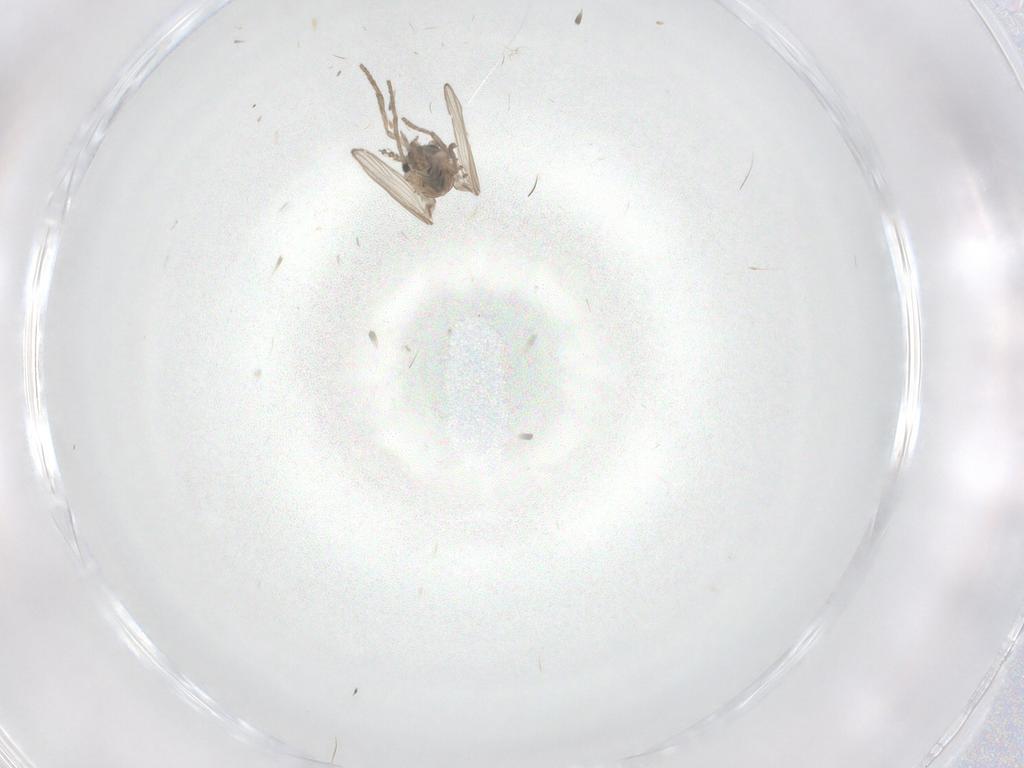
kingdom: Animalia
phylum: Arthropoda
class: Insecta
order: Diptera
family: Psychodidae
